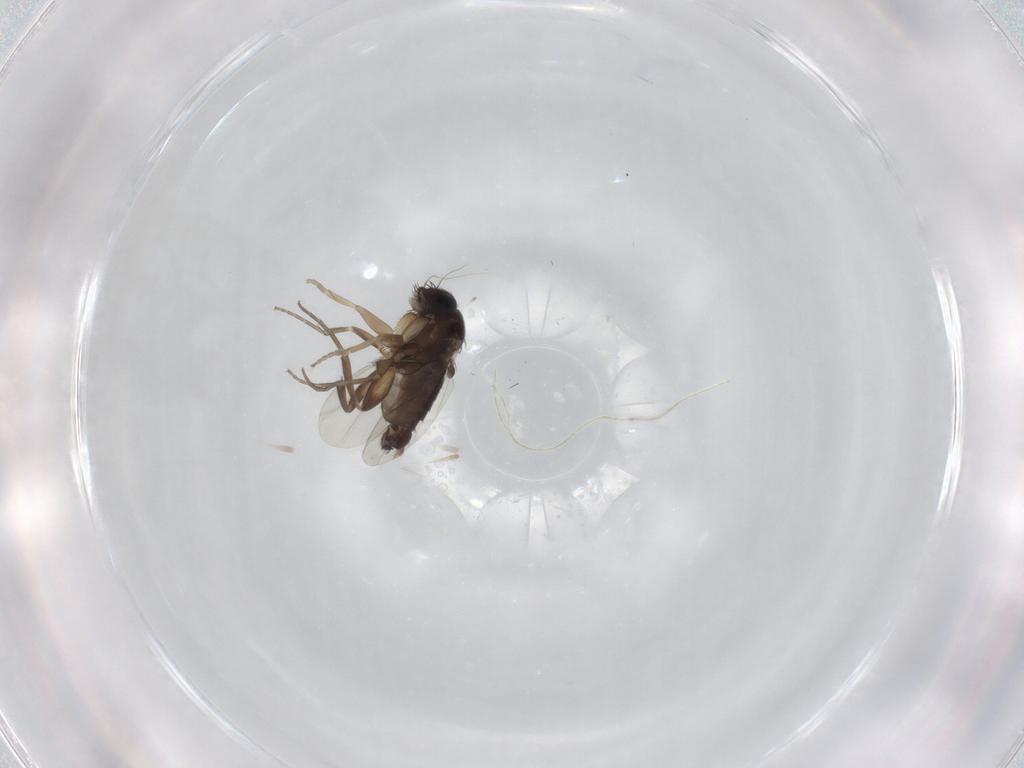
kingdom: Animalia
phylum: Arthropoda
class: Insecta
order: Diptera
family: Phoridae
